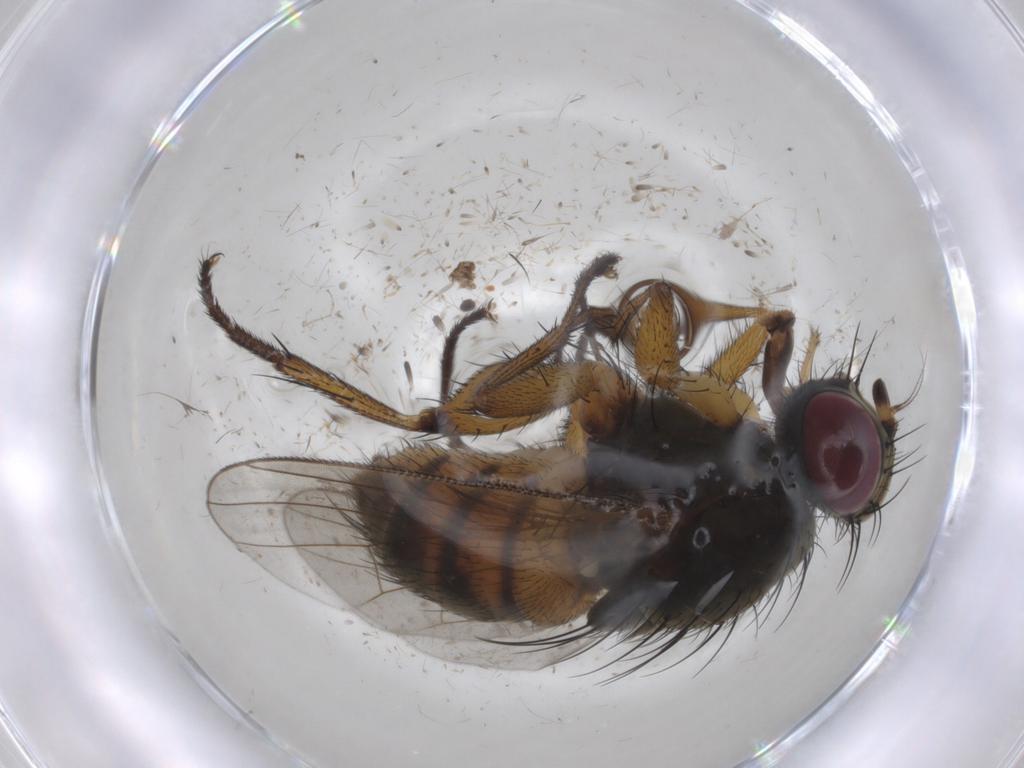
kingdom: Animalia
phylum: Arthropoda
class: Insecta
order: Diptera
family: Muscidae
